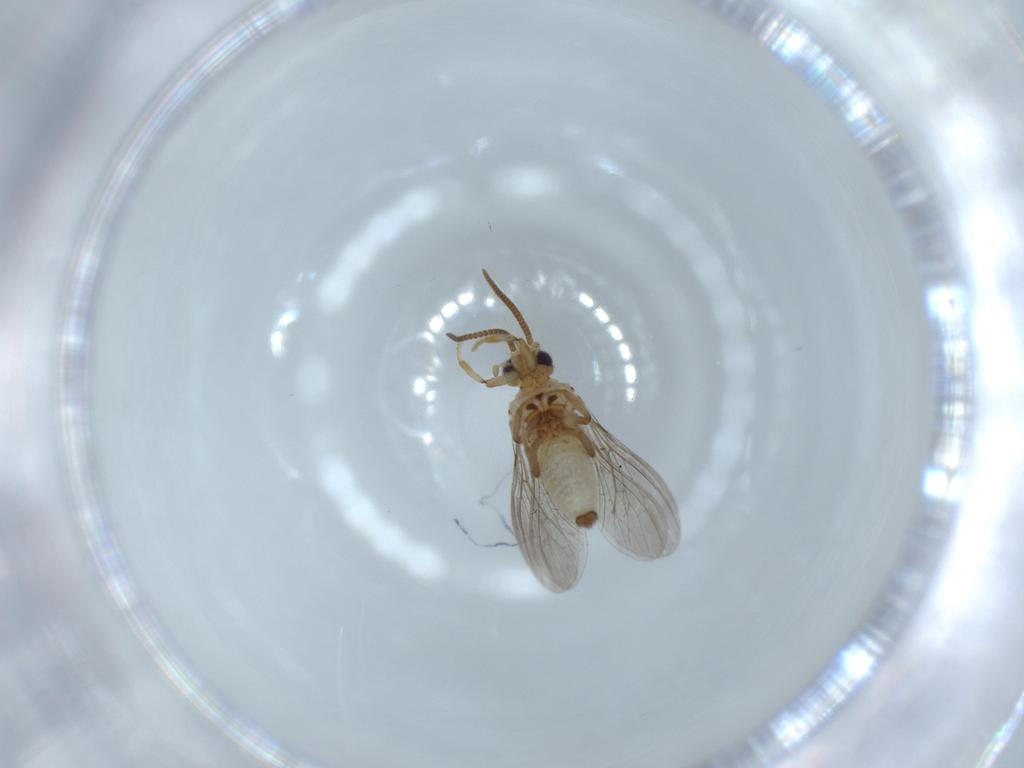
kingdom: Animalia
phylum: Arthropoda
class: Insecta
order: Neuroptera
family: Coniopterygidae
